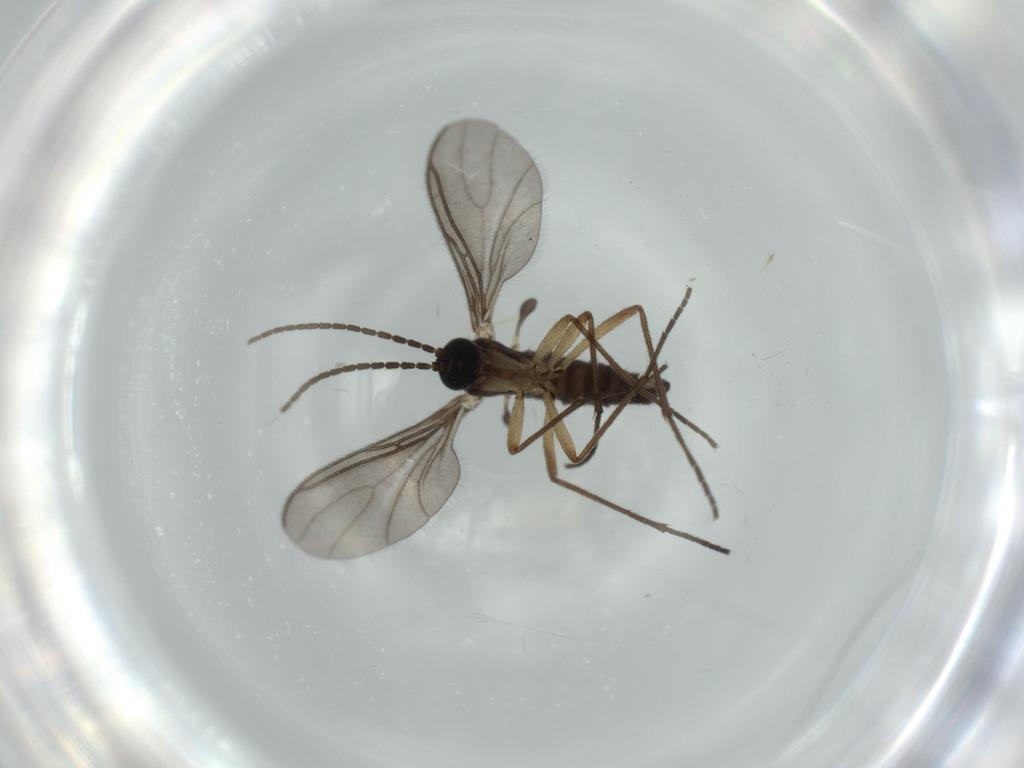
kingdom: Animalia
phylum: Arthropoda
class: Insecta
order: Diptera
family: Sciaridae
